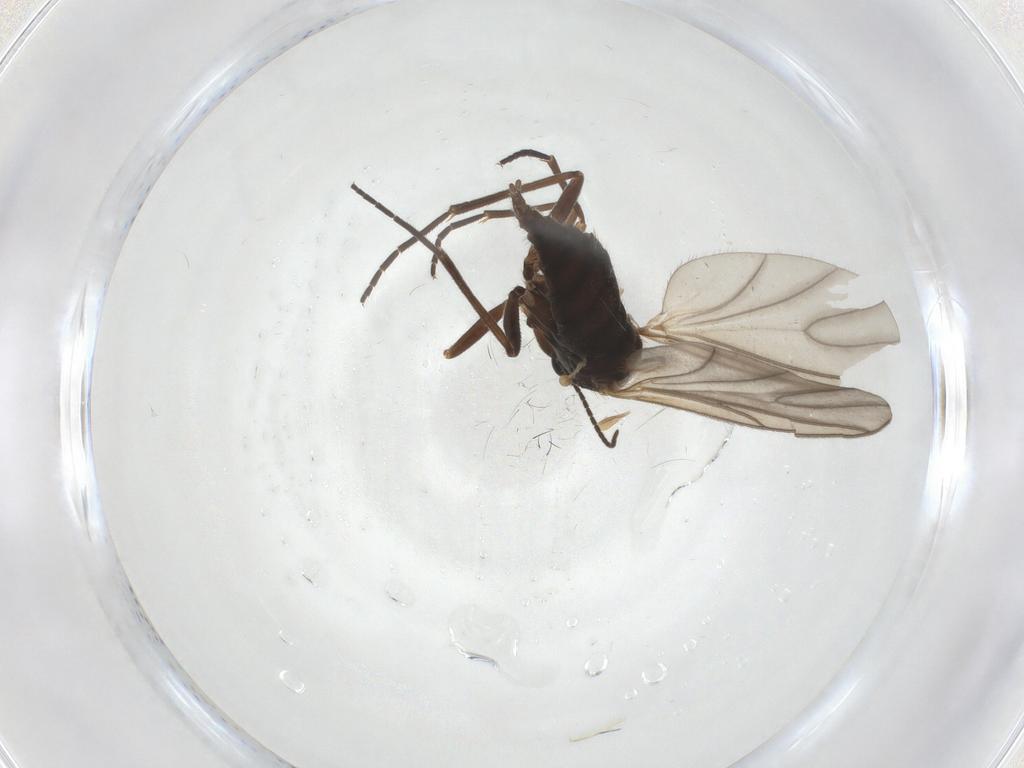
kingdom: Animalia
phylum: Arthropoda
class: Insecta
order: Diptera
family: Sciaridae
